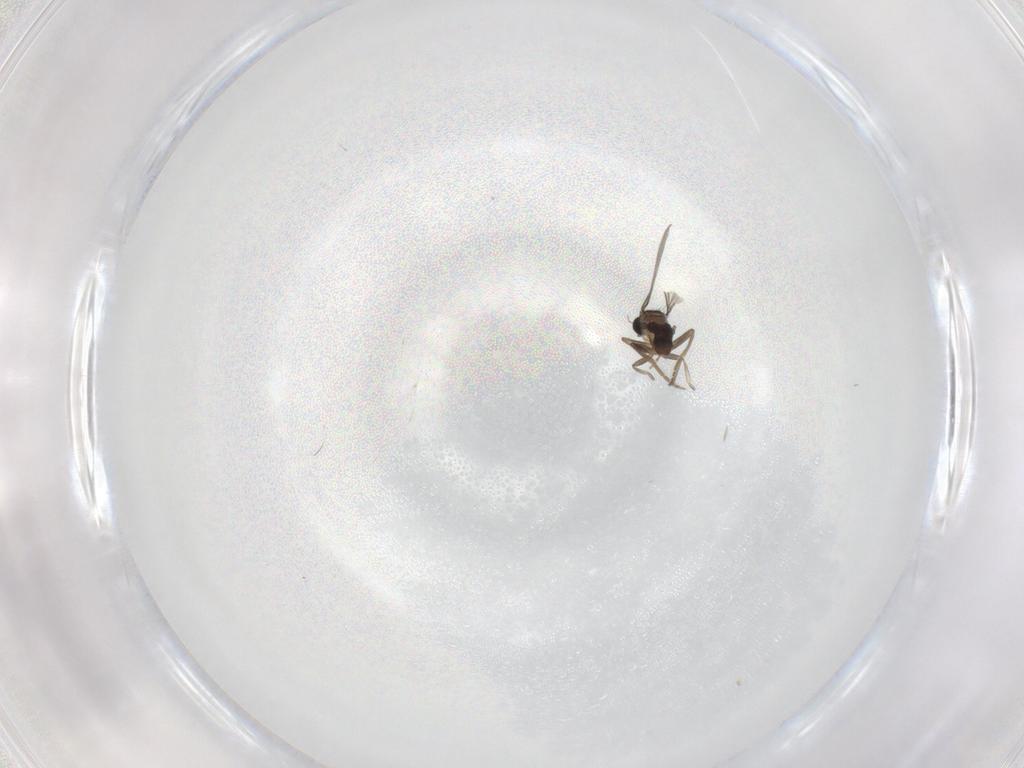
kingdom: Animalia
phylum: Arthropoda
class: Insecta
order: Diptera
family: Psychodidae
